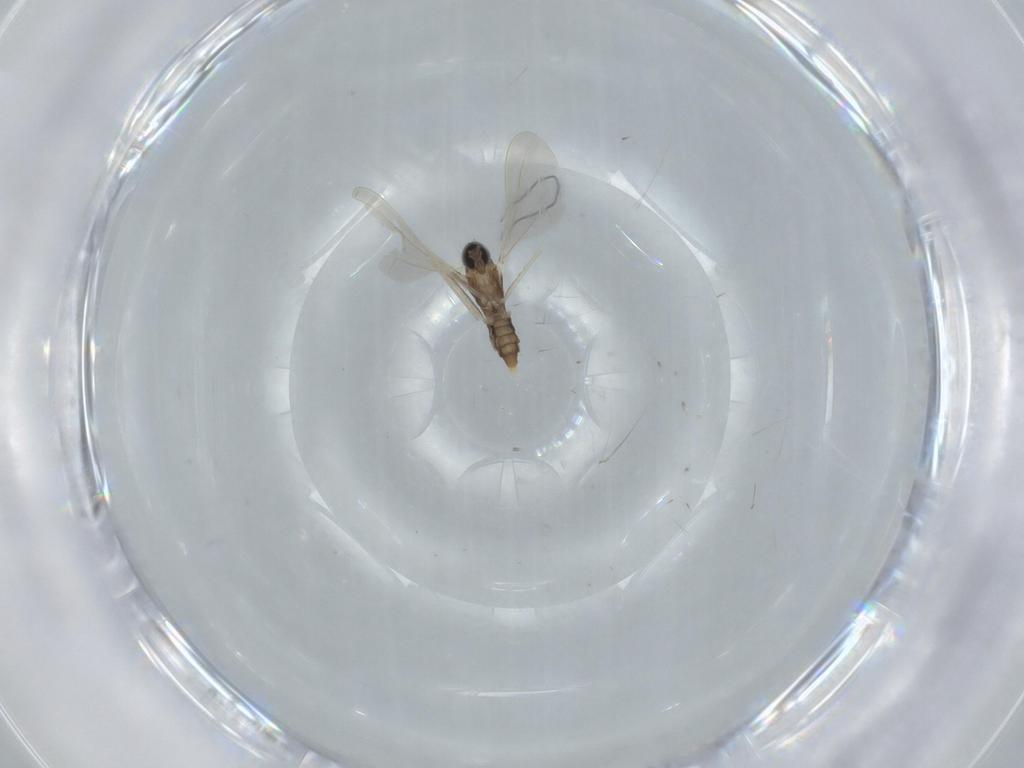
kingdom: Animalia
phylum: Arthropoda
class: Insecta
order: Diptera
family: Cecidomyiidae
